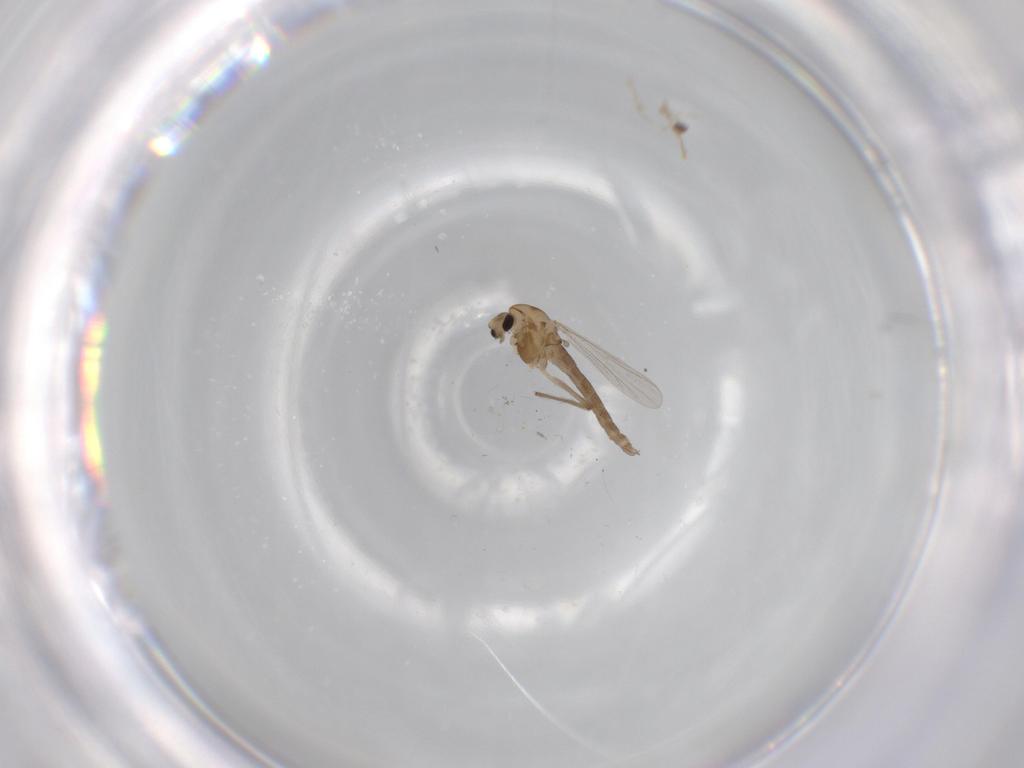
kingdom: Animalia
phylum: Arthropoda
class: Insecta
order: Diptera
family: Chironomidae
